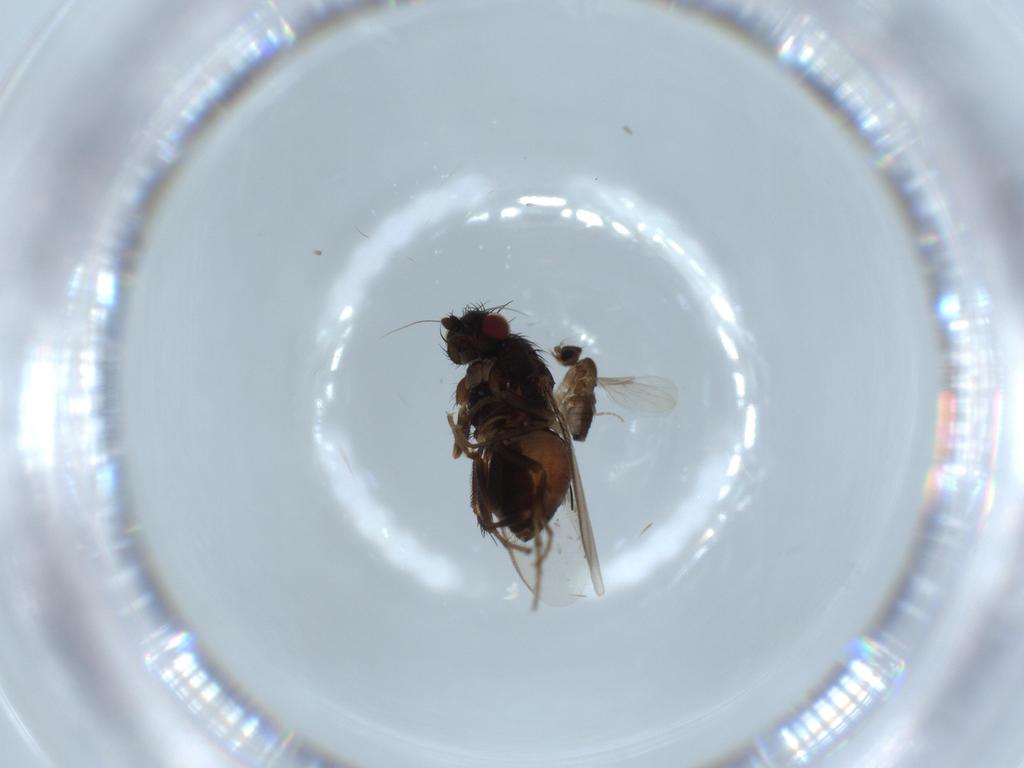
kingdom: Animalia
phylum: Arthropoda
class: Insecta
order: Diptera
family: Sphaeroceridae
